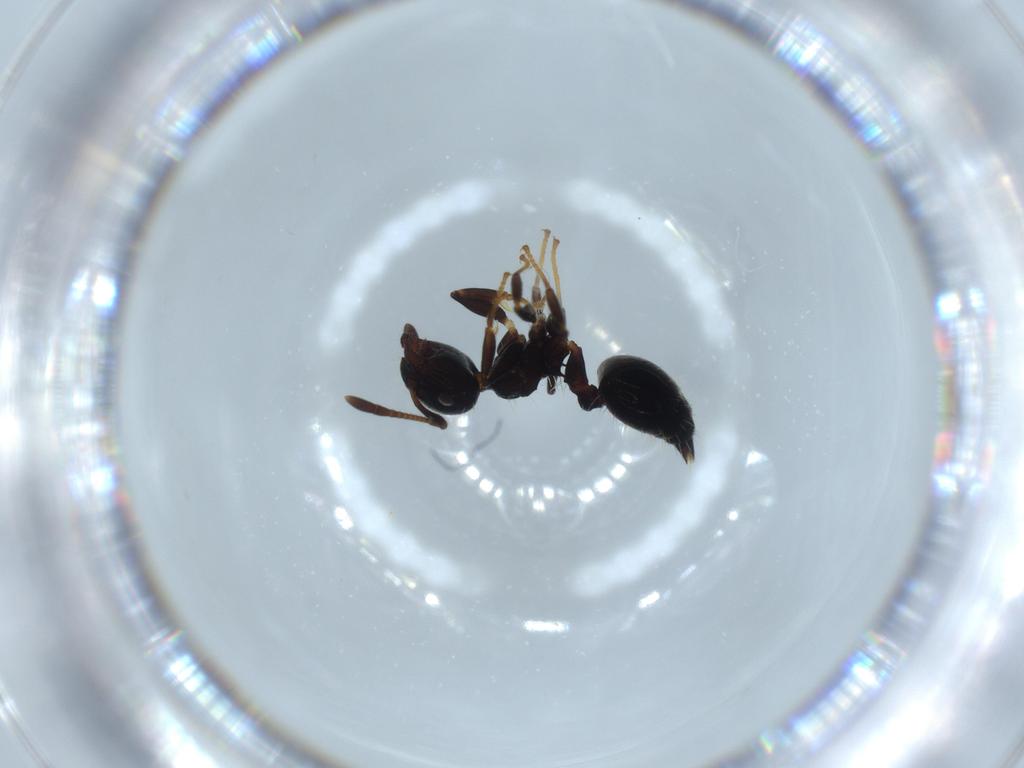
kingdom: Animalia
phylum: Arthropoda
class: Insecta
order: Hymenoptera
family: Formicidae
